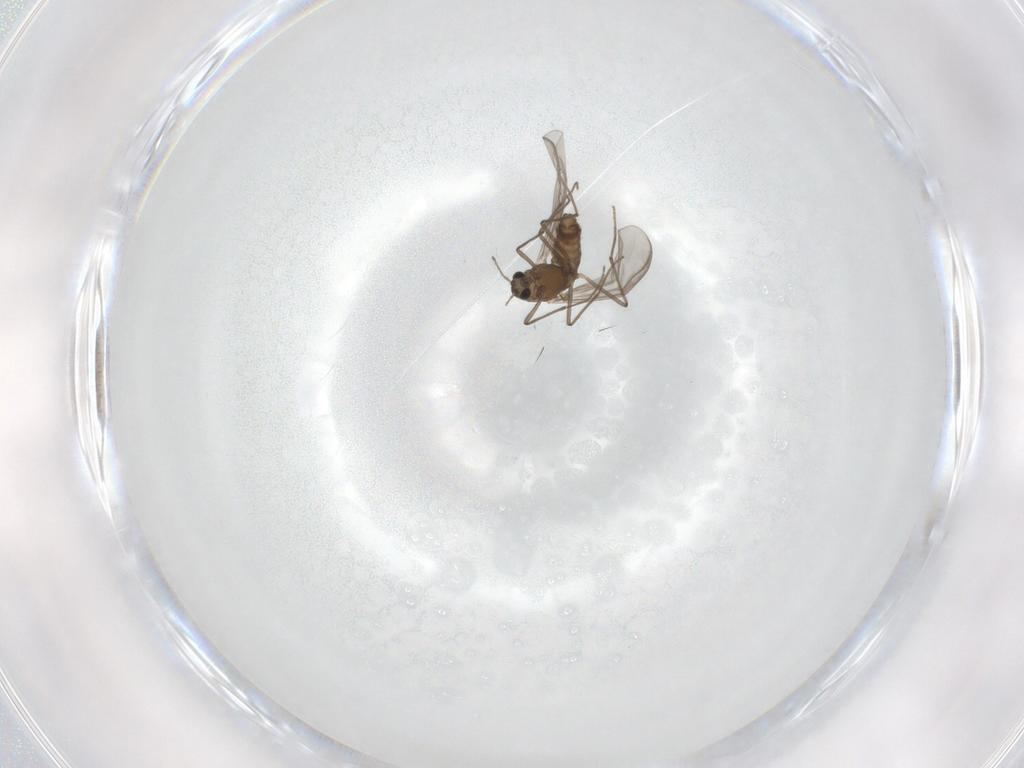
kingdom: Animalia
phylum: Arthropoda
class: Insecta
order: Diptera
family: Chironomidae
